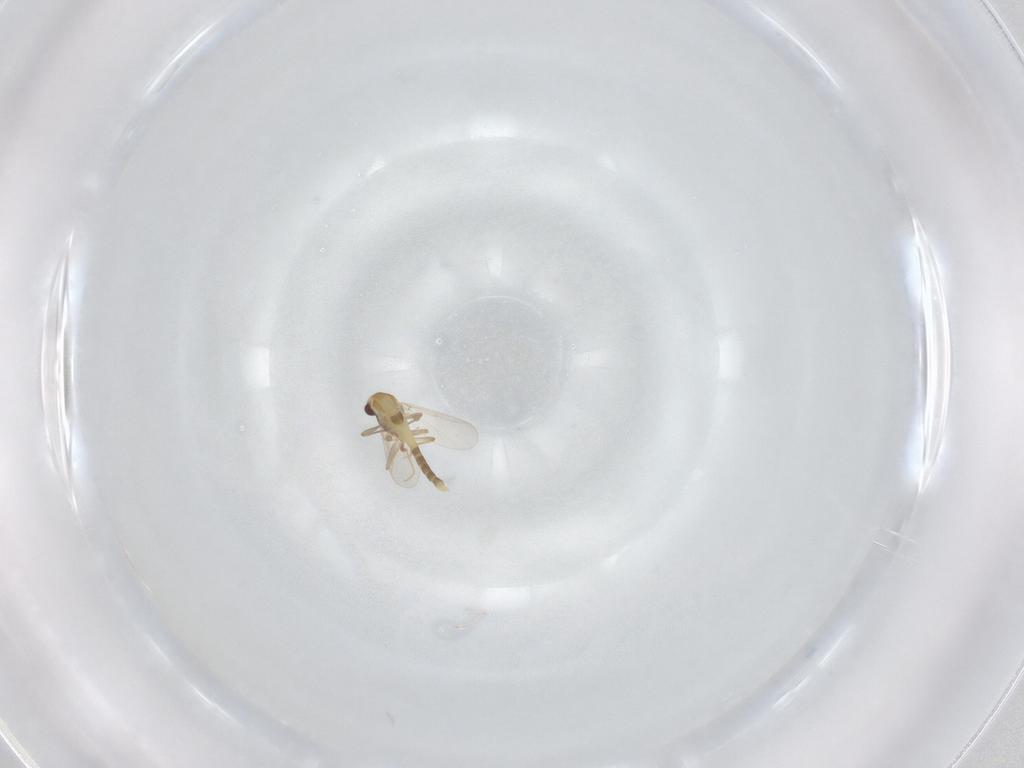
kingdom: Animalia
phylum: Arthropoda
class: Insecta
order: Diptera
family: Chironomidae
